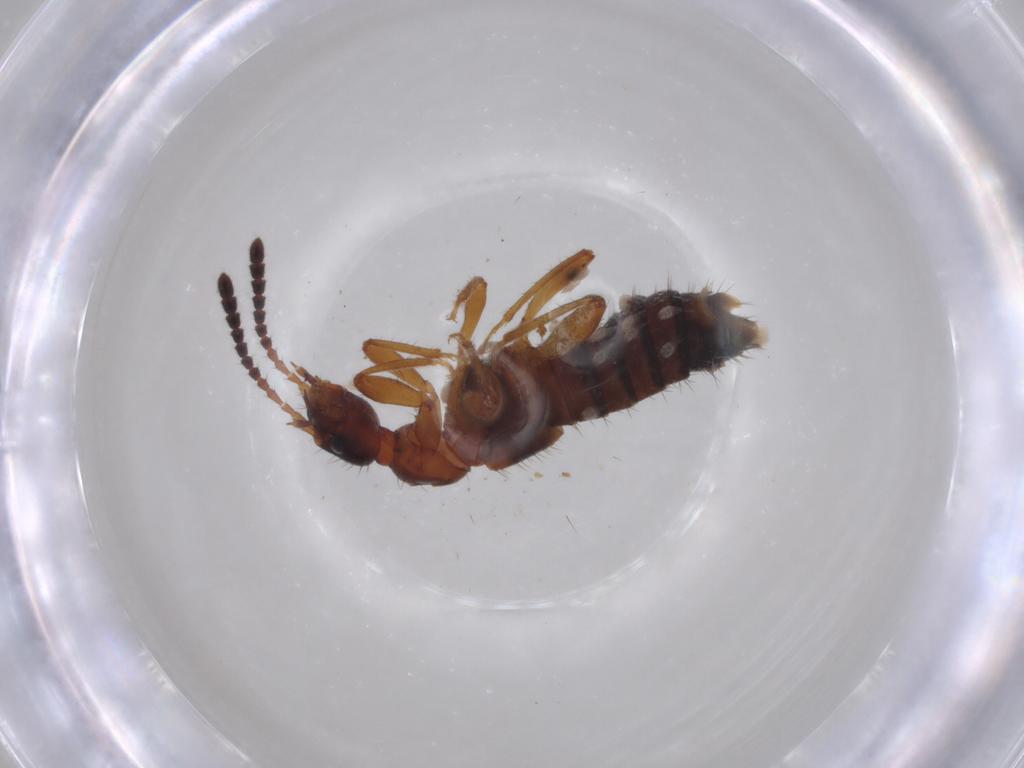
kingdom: Animalia
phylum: Arthropoda
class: Insecta
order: Coleoptera
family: Staphylinidae
